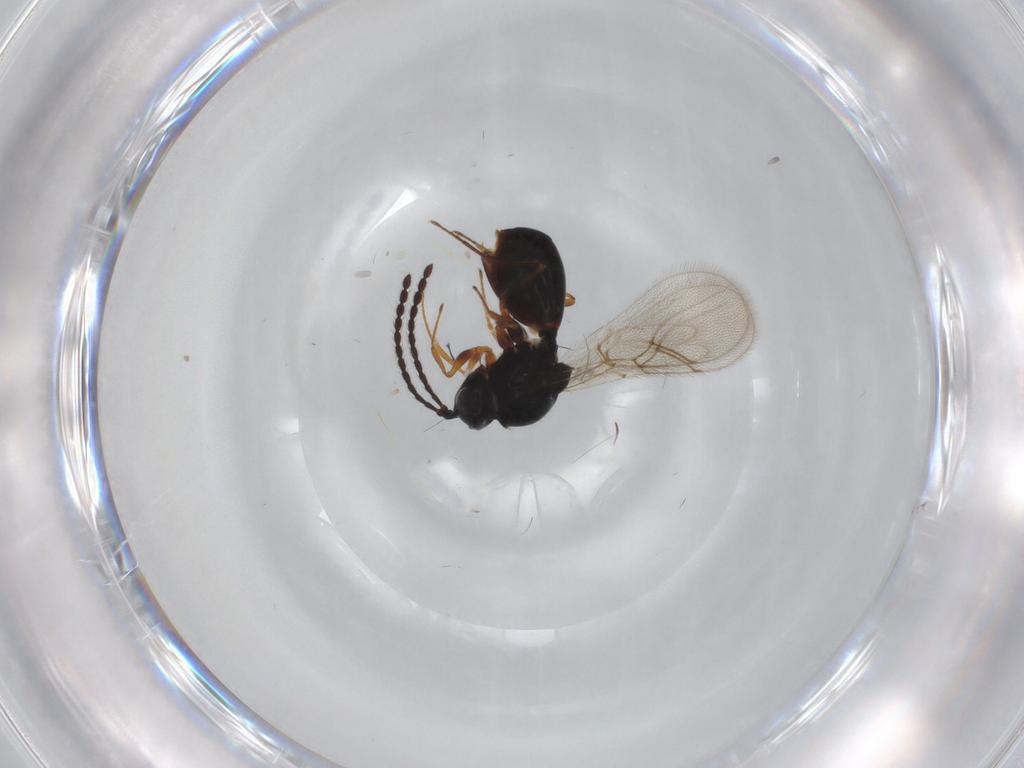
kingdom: Animalia
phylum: Arthropoda
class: Insecta
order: Hymenoptera
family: Figitidae
